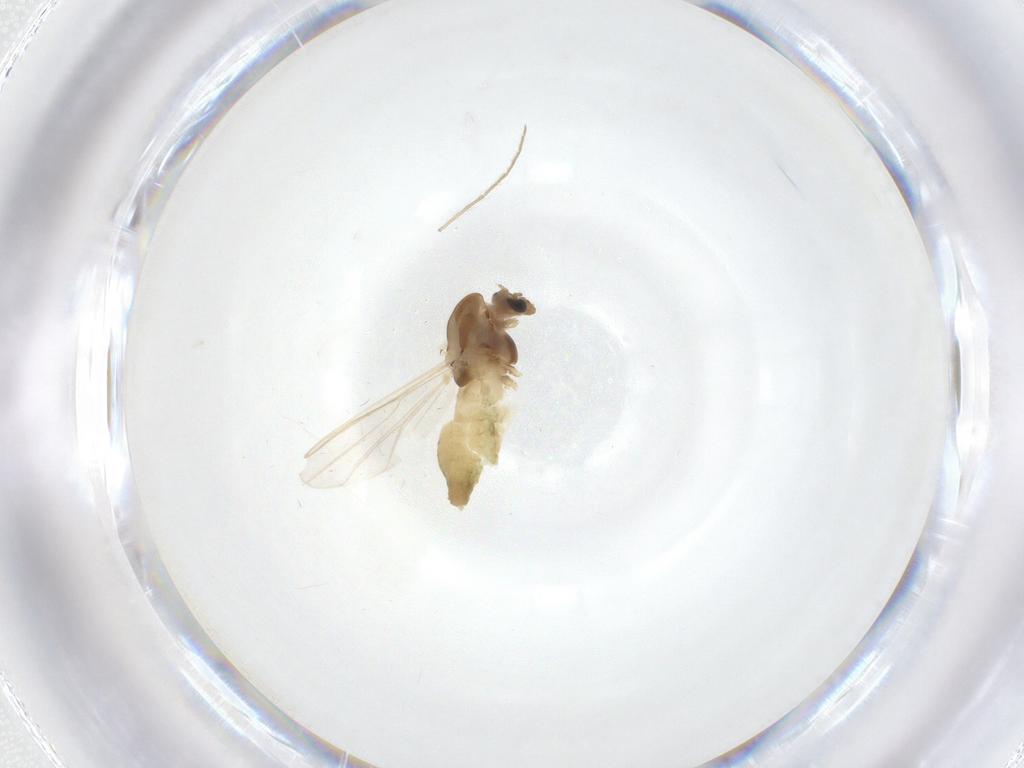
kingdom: Animalia
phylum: Arthropoda
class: Insecta
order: Diptera
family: Chironomidae
